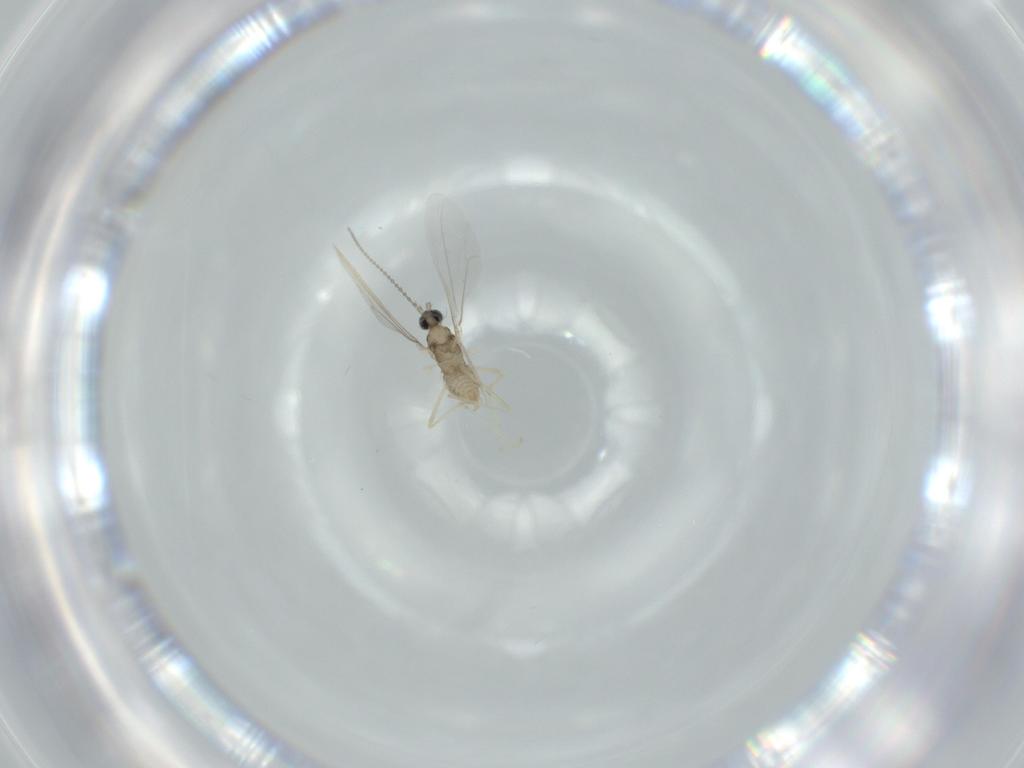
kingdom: Animalia
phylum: Arthropoda
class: Insecta
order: Diptera
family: Cecidomyiidae
